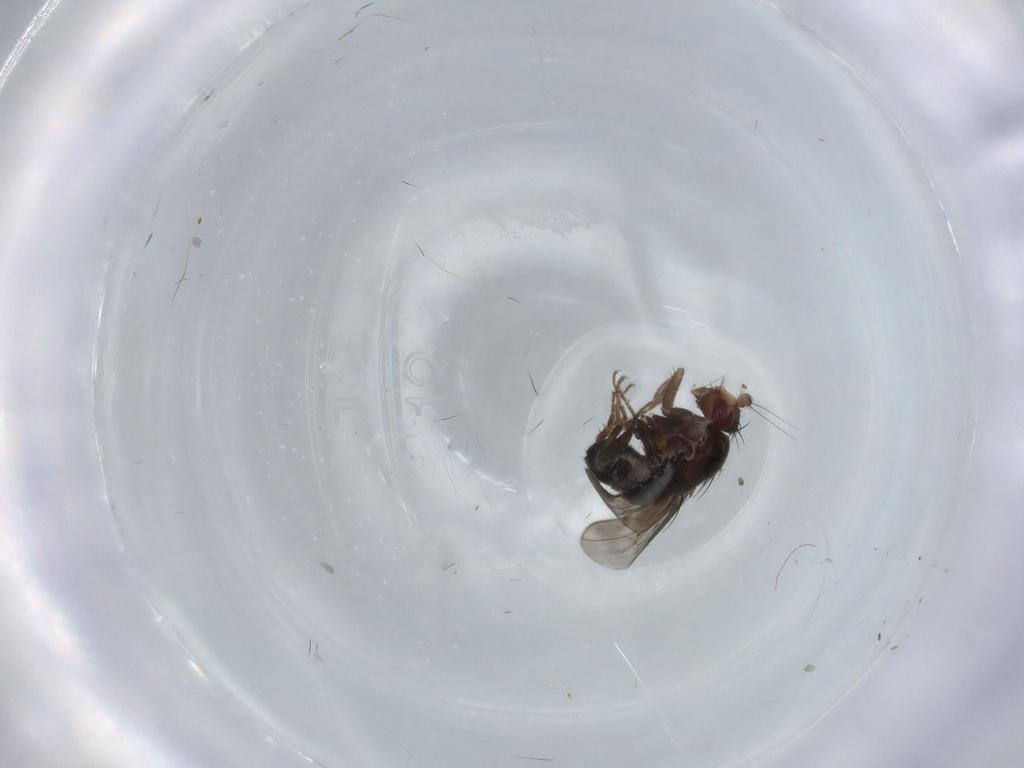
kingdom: Animalia
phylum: Arthropoda
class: Insecta
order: Diptera
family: Sphaeroceridae
